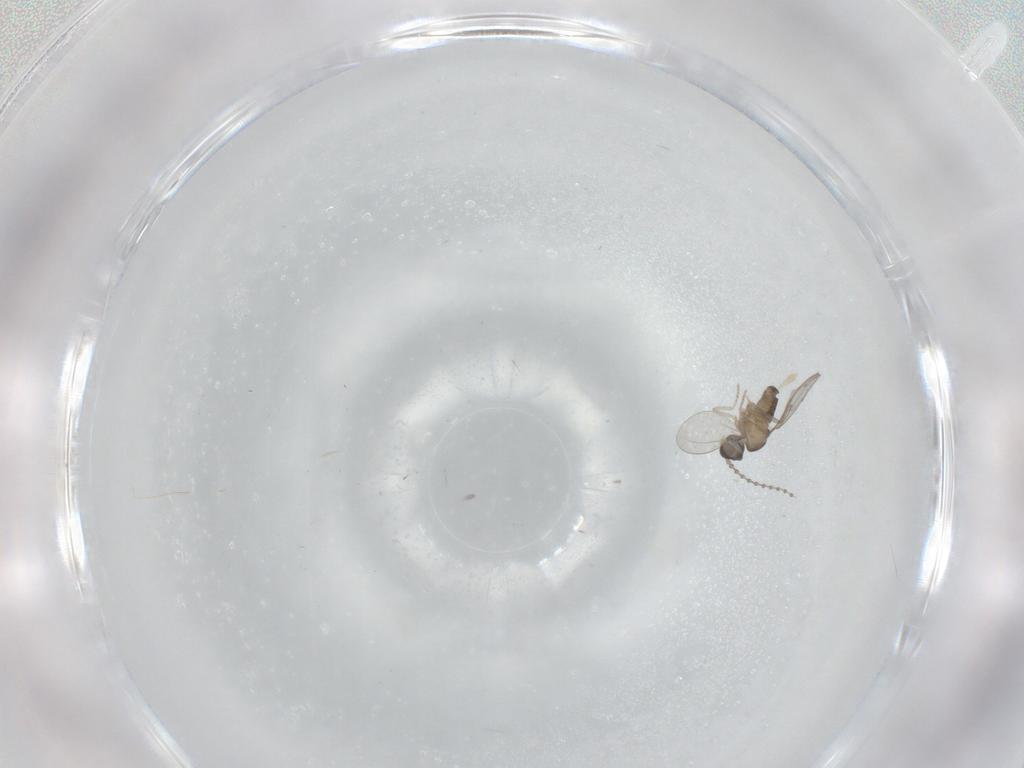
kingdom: Animalia
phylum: Arthropoda
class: Insecta
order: Diptera
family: Cecidomyiidae
